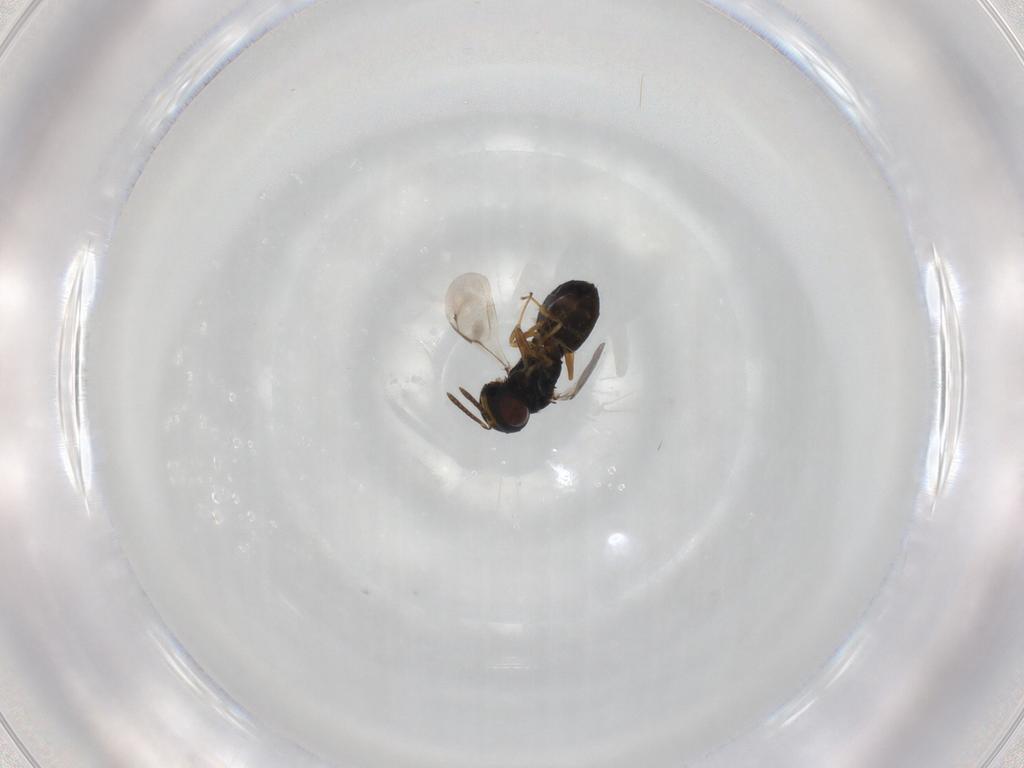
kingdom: Animalia
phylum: Arthropoda
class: Insecta
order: Hymenoptera
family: Pteromalidae
